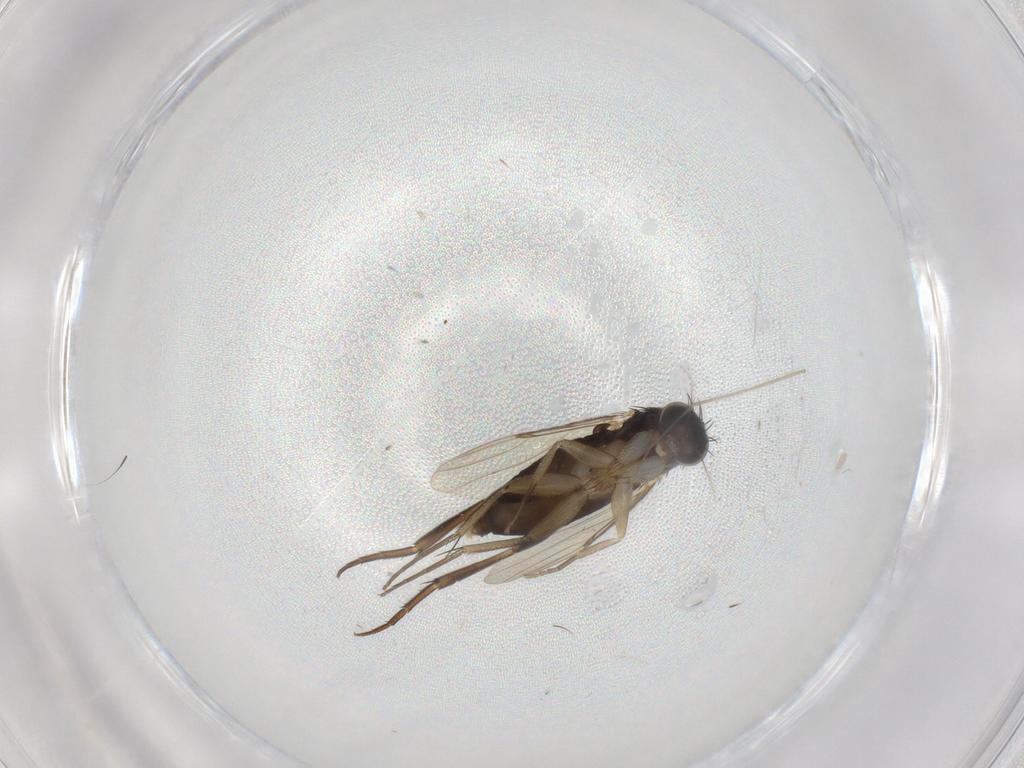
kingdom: Animalia
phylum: Arthropoda
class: Insecta
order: Diptera
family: Phoridae
